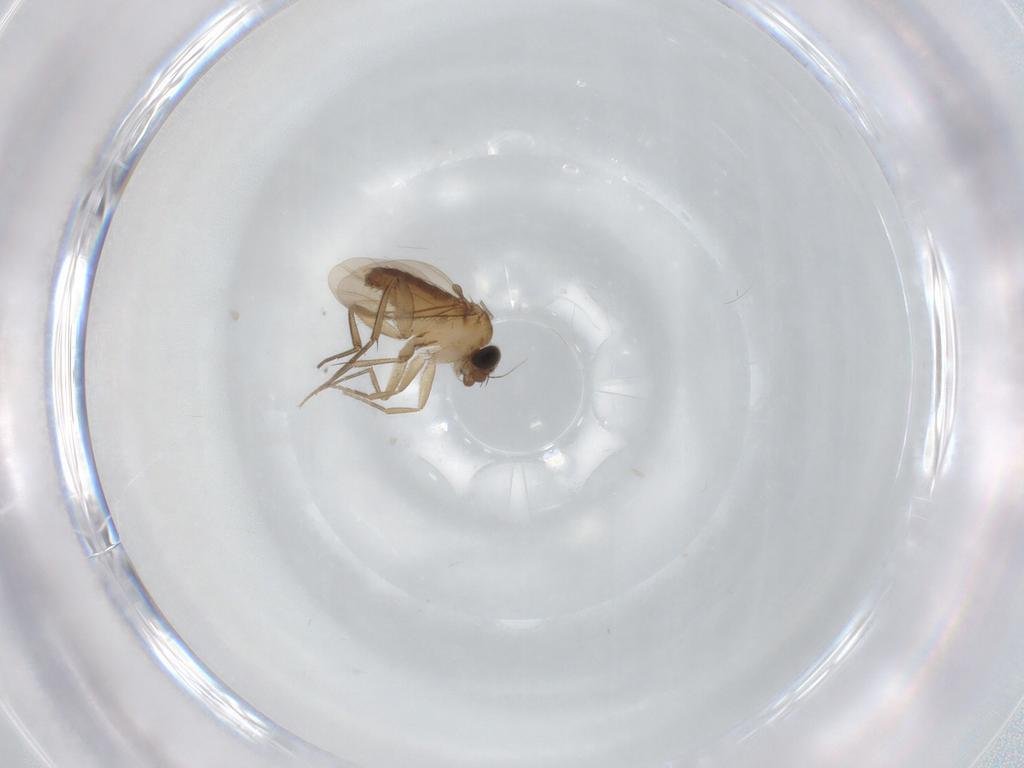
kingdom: Animalia
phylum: Arthropoda
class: Insecta
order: Diptera
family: Phoridae
